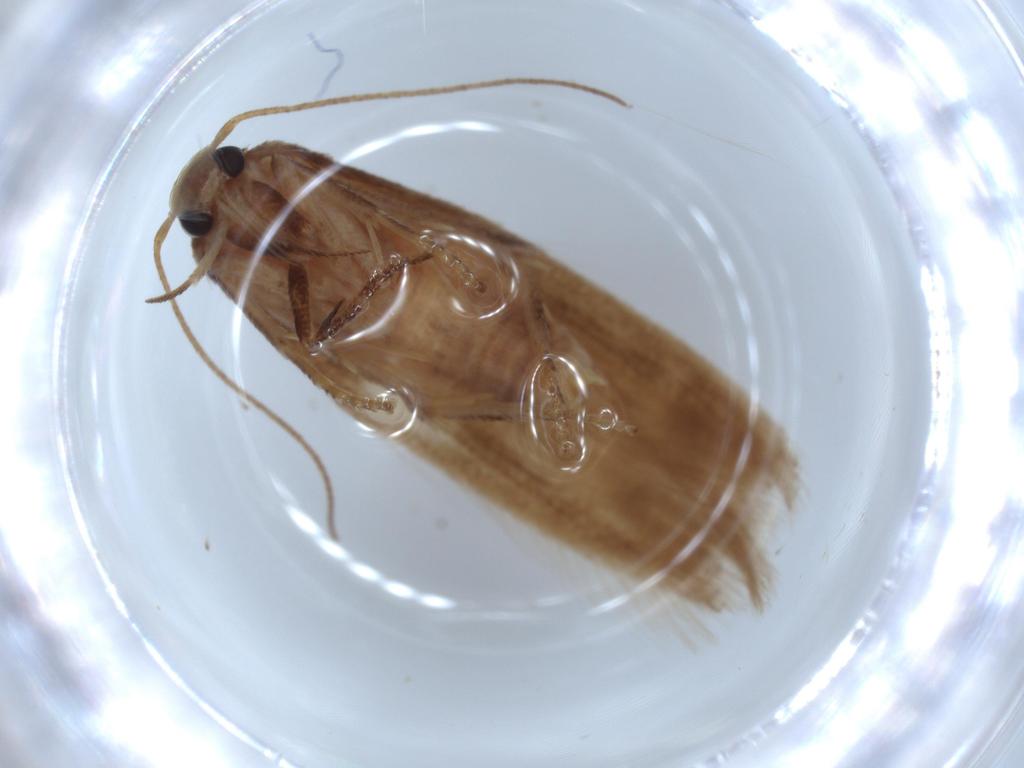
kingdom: Animalia
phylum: Arthropoda
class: Insecta
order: Lepidoptera
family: Stathmopodidae
